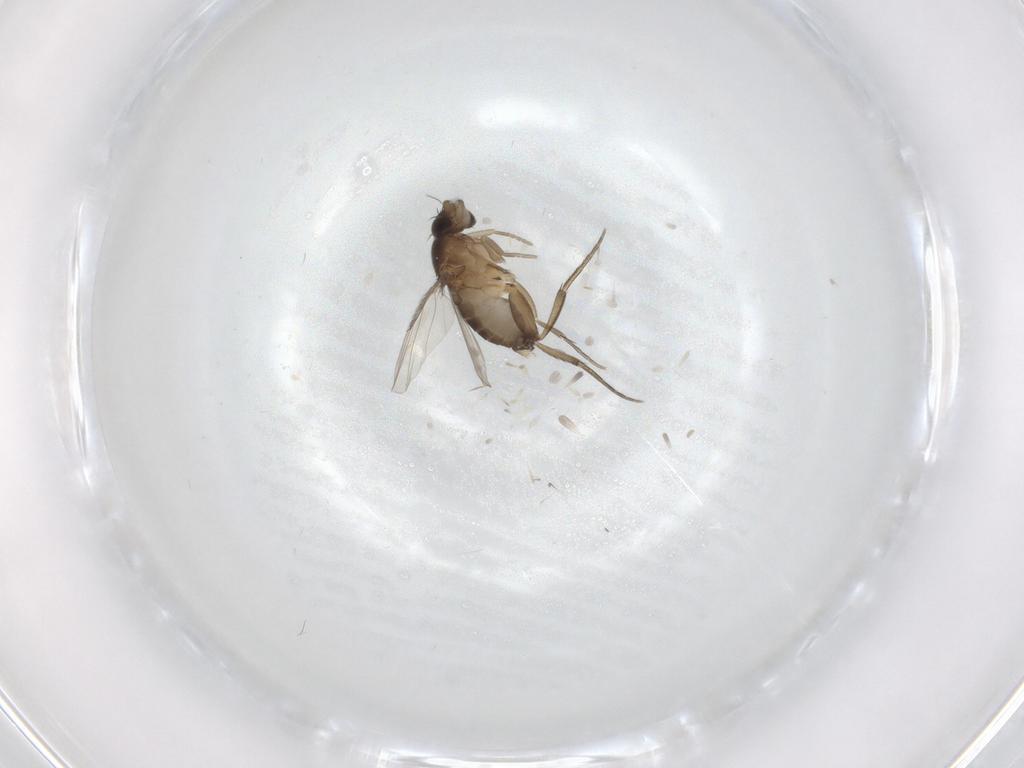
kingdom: Animalia
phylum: Arthropoda
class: Insecta
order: Diptera
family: Phoridae
